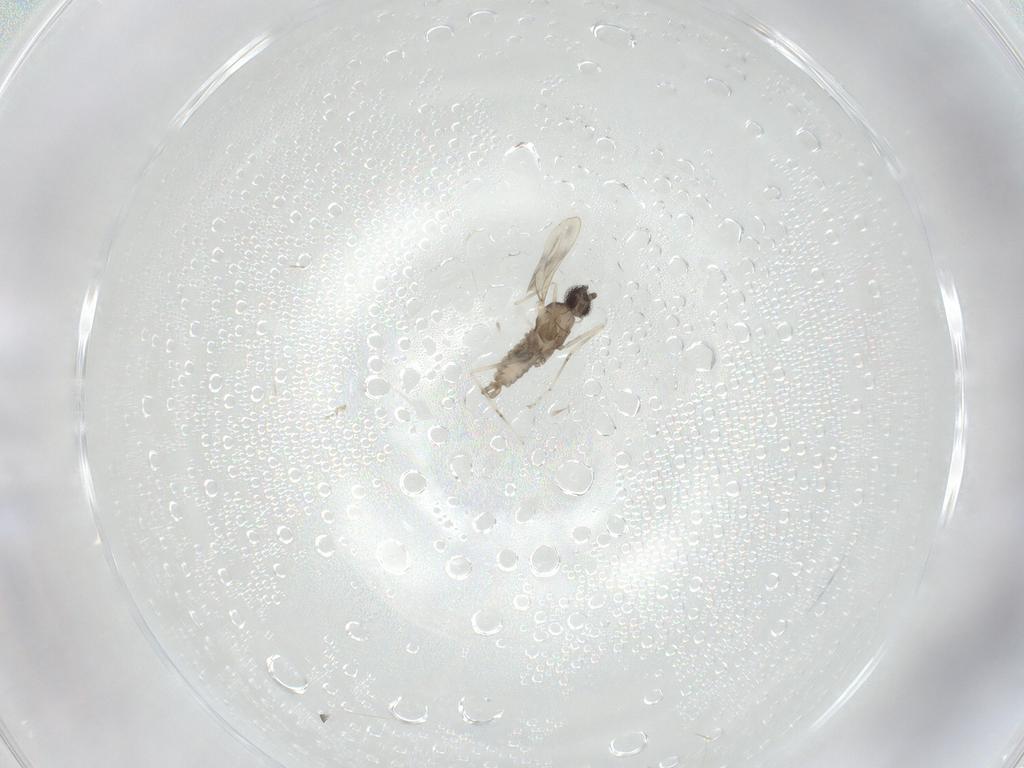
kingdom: Animalia
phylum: Arthropoda
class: Insecta
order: Diptera
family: Cecidomyiidae
